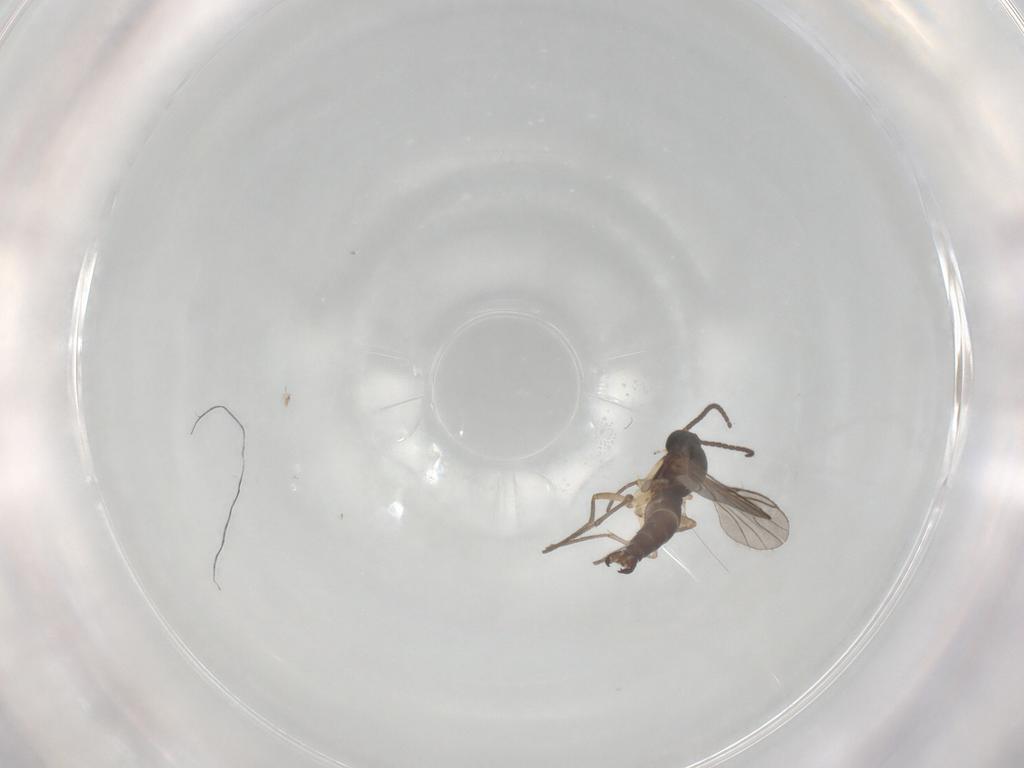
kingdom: Animalia
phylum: Arthropoda
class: Insecta
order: Diptera
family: Sciaridae
